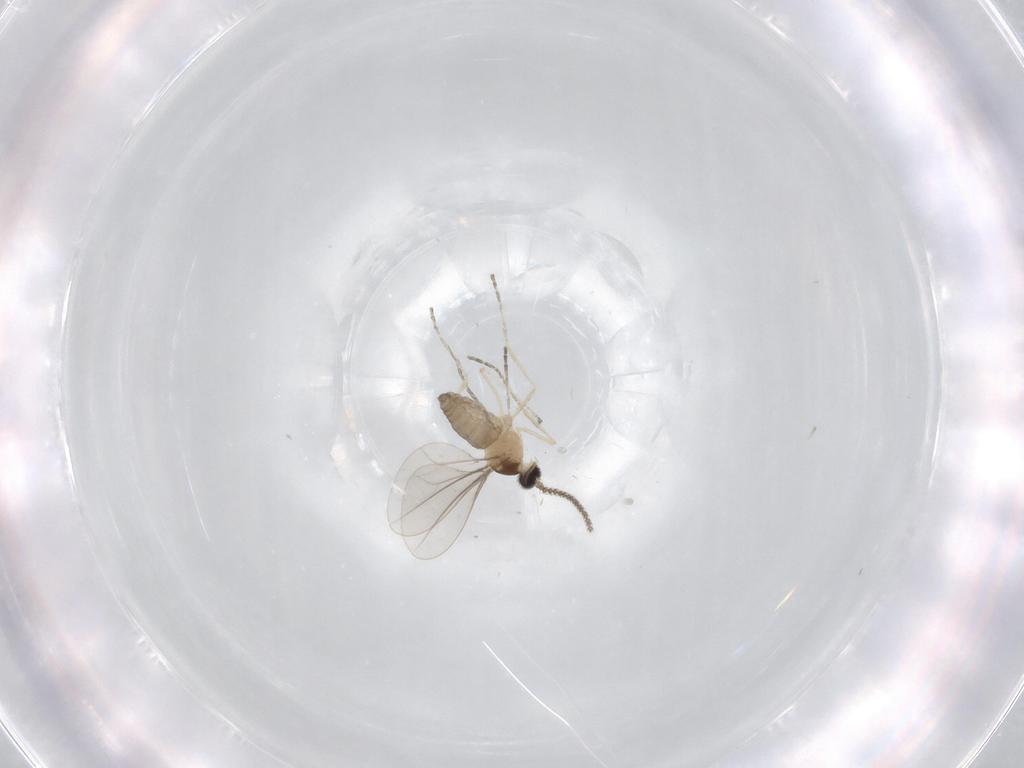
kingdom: Animalia
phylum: Arthropoda
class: Insecta
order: Diptera
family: Cecidomyiidae
